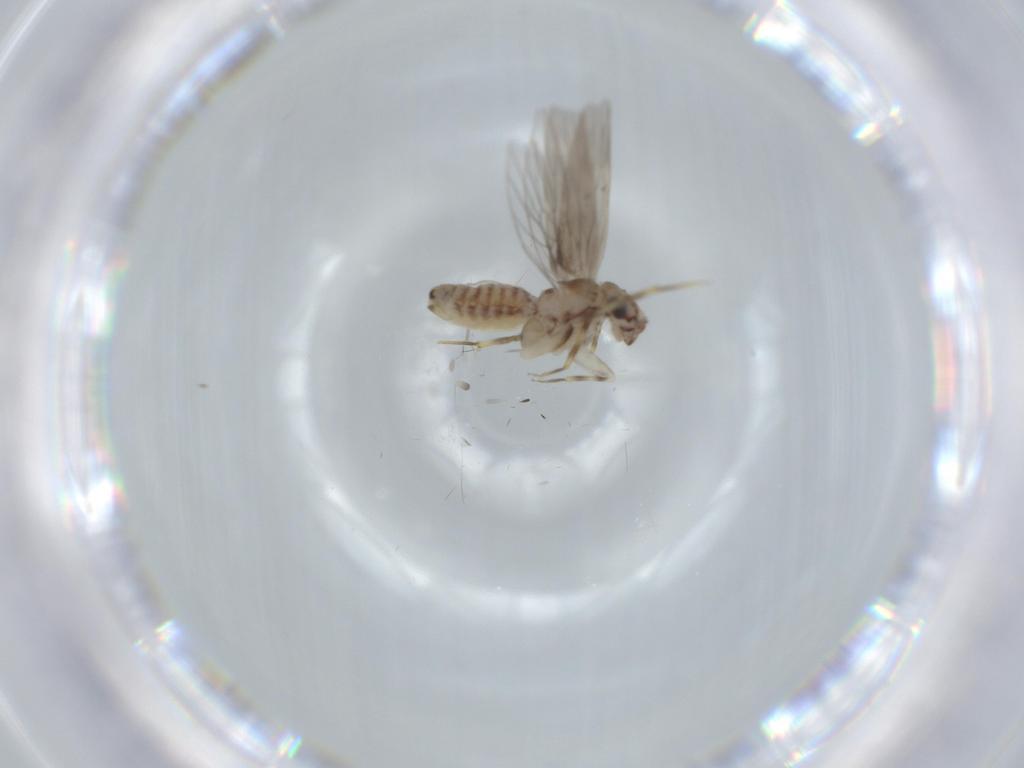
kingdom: Animalia
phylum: Arthropoda
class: Insecta
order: Psocodea
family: Lepidopsocidae
